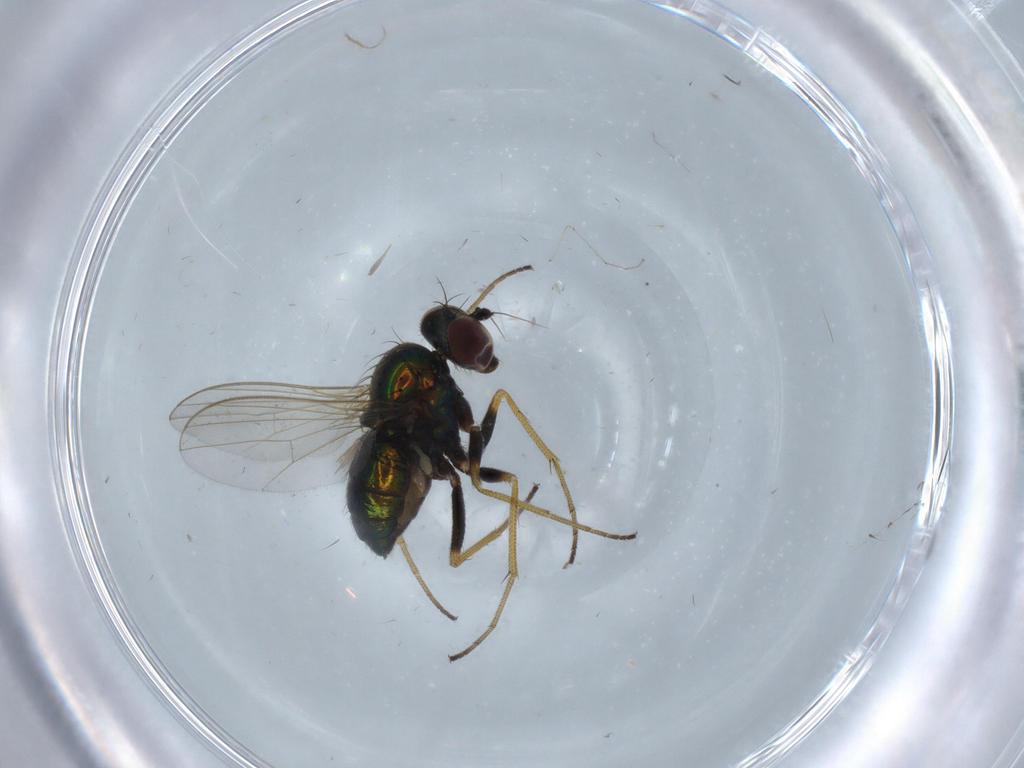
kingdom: Animalia
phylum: Arthropoda
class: Insecta
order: Diptera
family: Dolichopodidae
